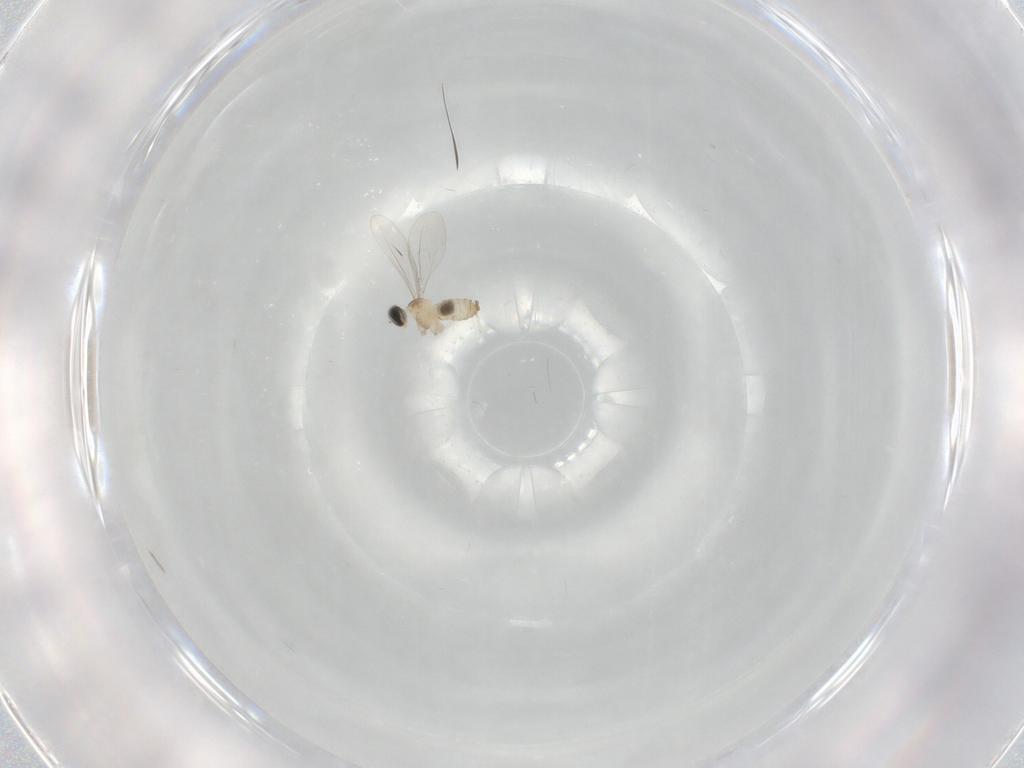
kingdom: Animalia
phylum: Arthropoda
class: Insecta
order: Diptera
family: Cecidomyiidae
